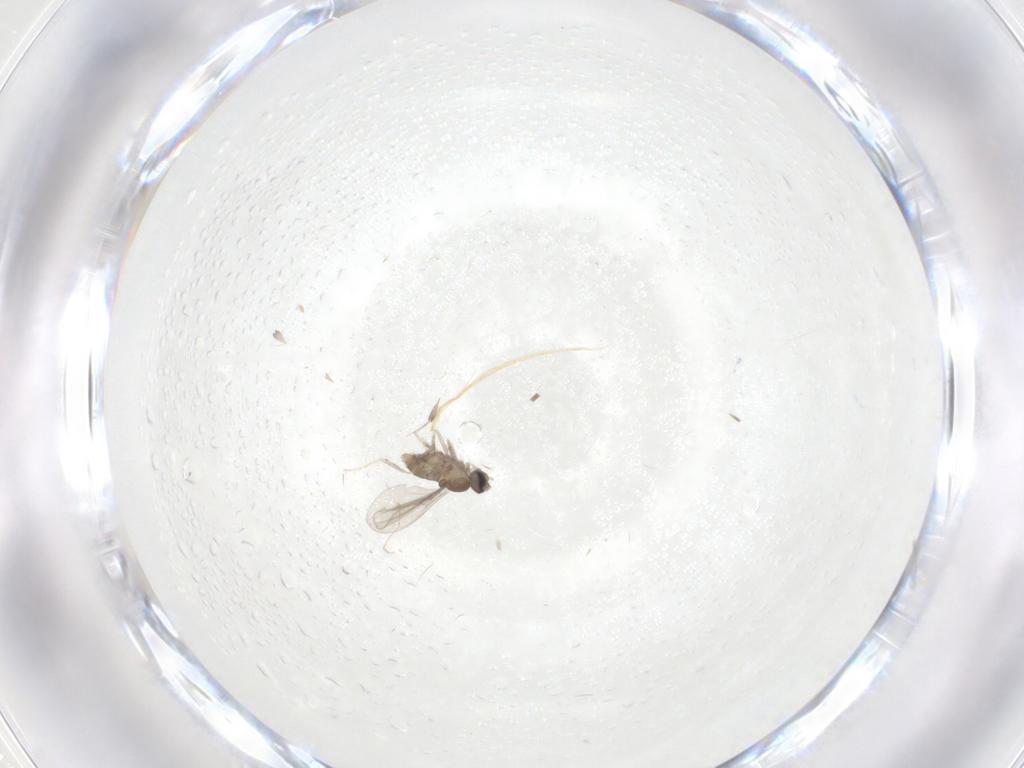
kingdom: Animalia
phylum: Arthropoda
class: Insecta
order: Diptera
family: Cecidomyiidae
